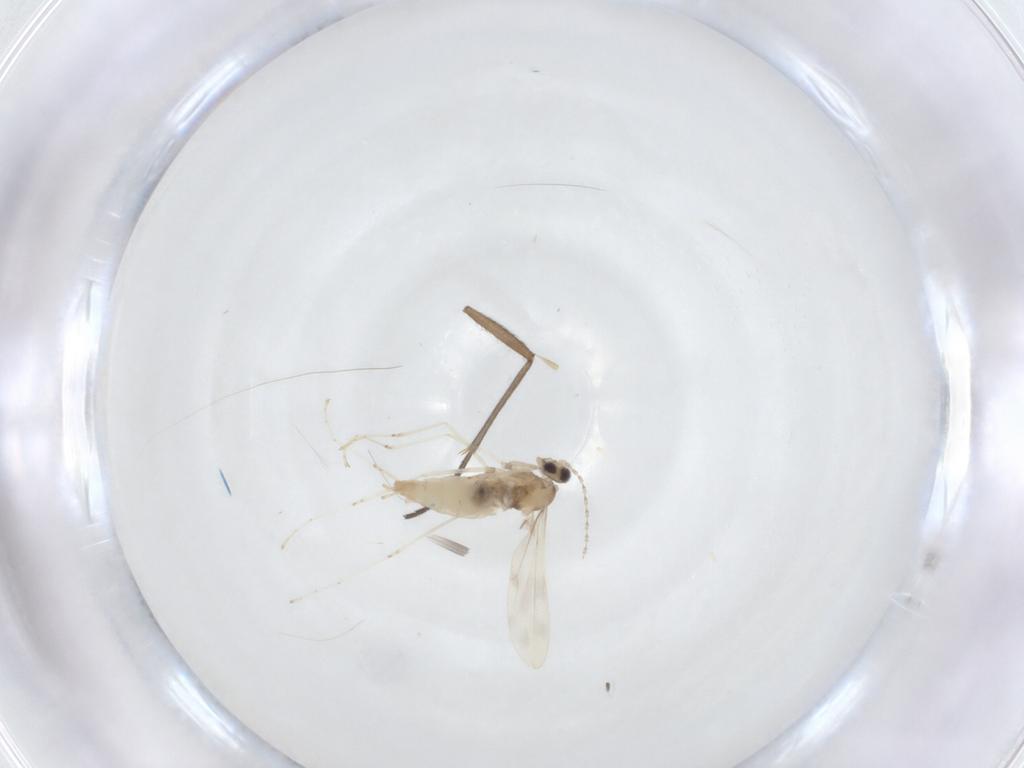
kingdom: Animalia
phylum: Arthropoda
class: Insecta
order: Diptera
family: Cecidomyiidae
